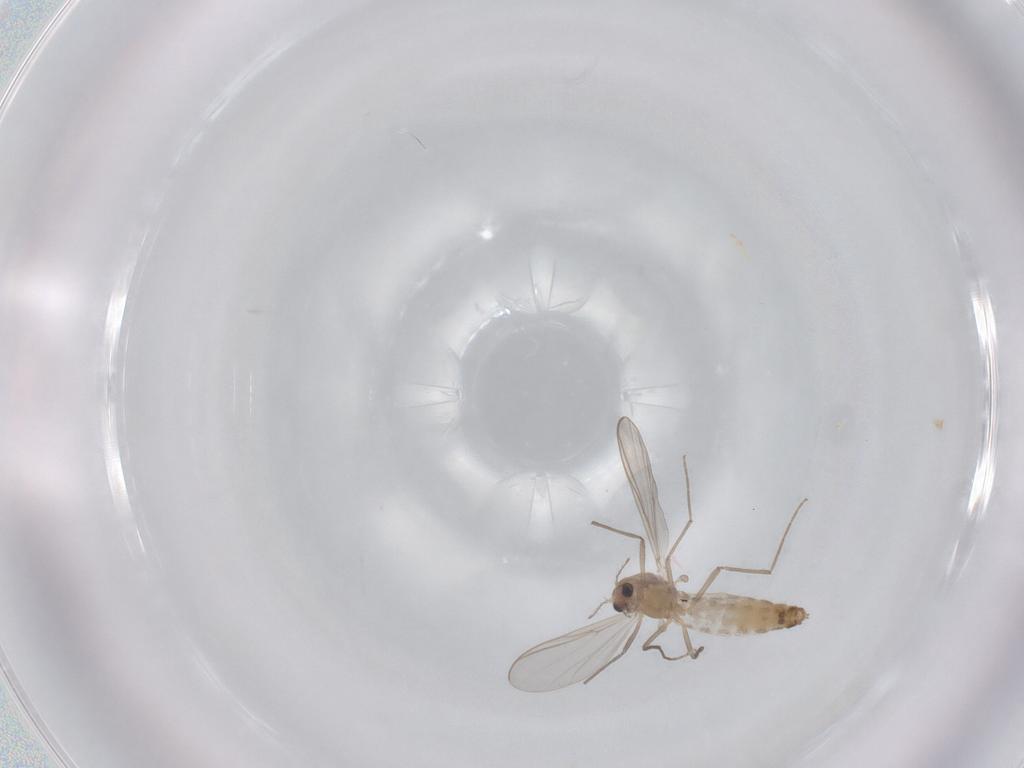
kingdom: Animalia
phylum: Arthropoda
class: Insecta
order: Diptera
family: Chironomidae
